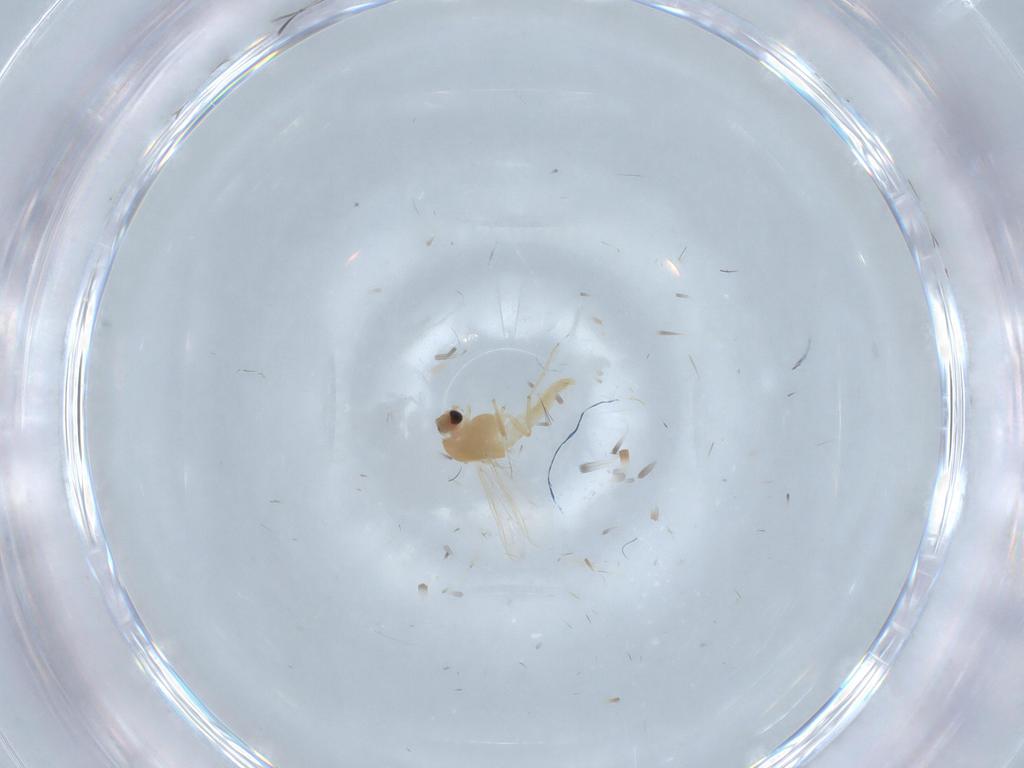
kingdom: Animalia
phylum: Arthropoda
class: Insecta
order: Diptera
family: Chironomidae
